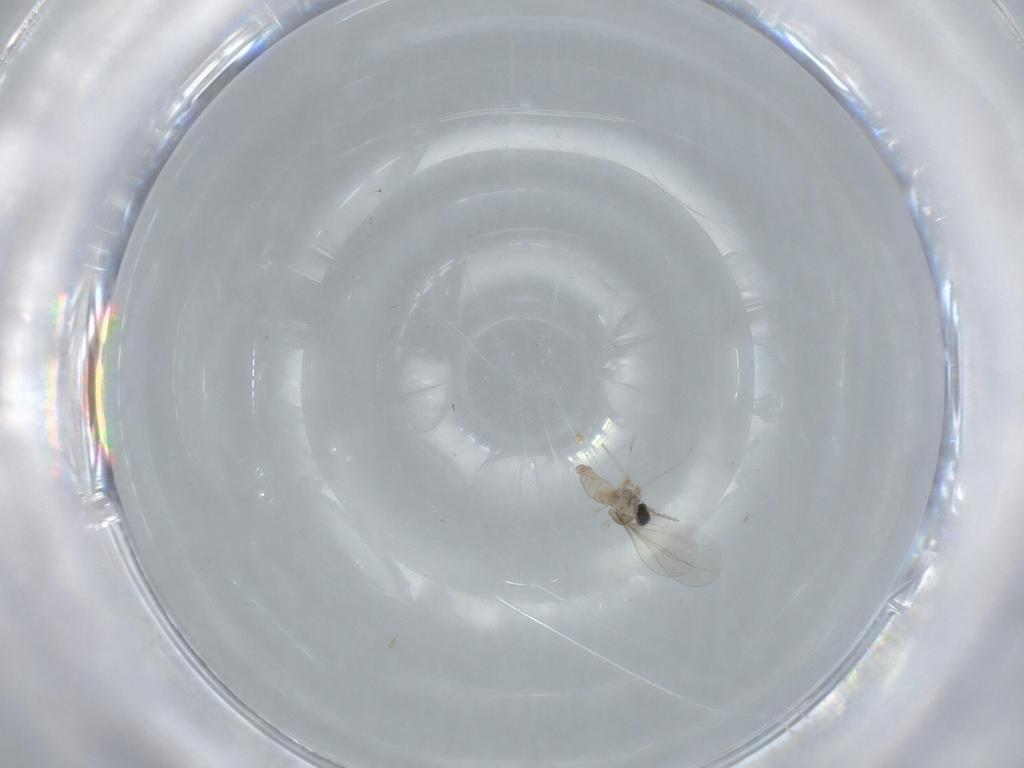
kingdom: Animalia
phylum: Arthropoda
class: Insecta
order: Diptera
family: Cecidomyiidae
